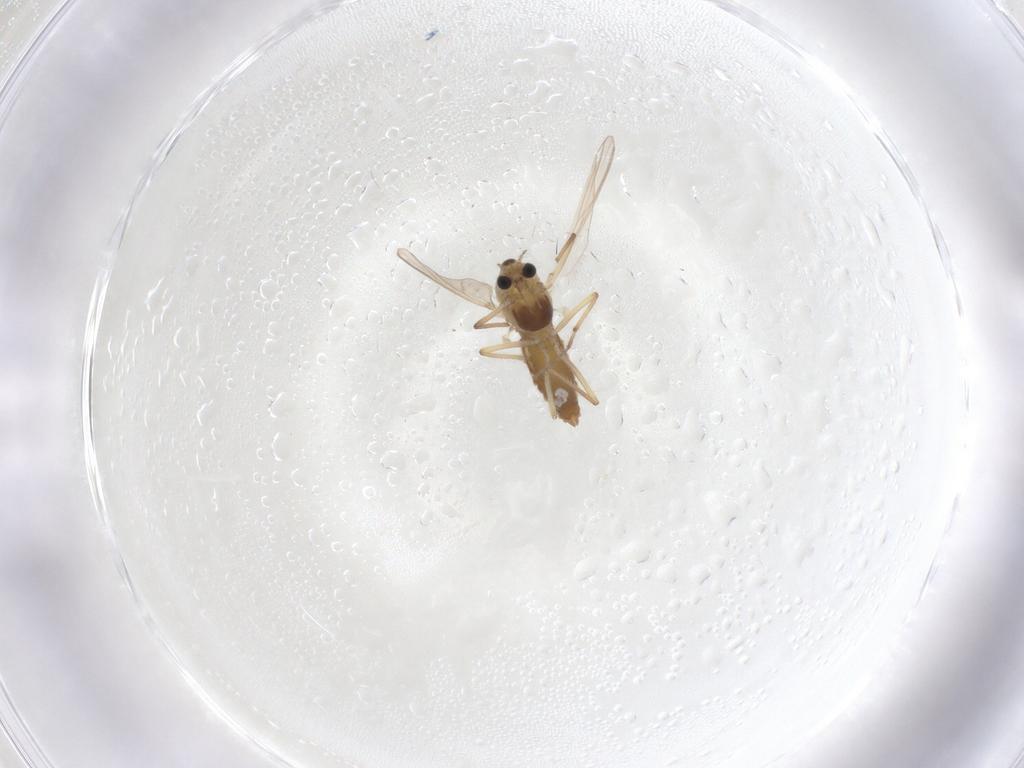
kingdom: Animalia
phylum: Arthropoda
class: Insecta
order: Diptera
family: Chironomidae
